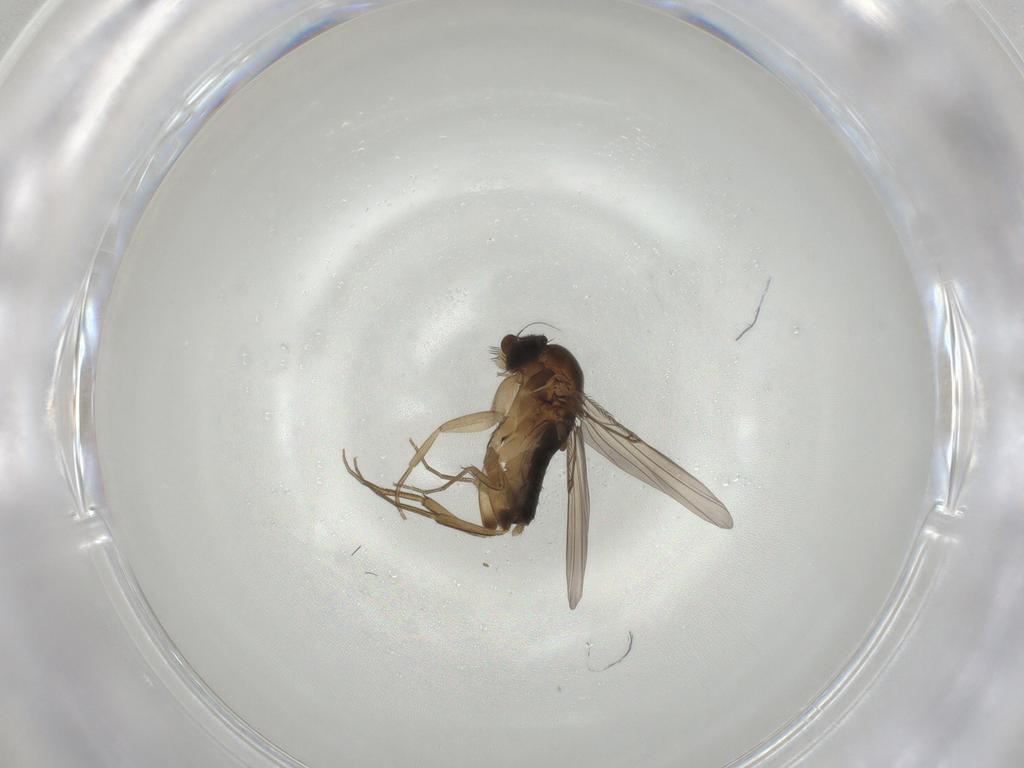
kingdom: Animalia
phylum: Arthropoda
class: Insecta
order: Diptera
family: Phoridae
